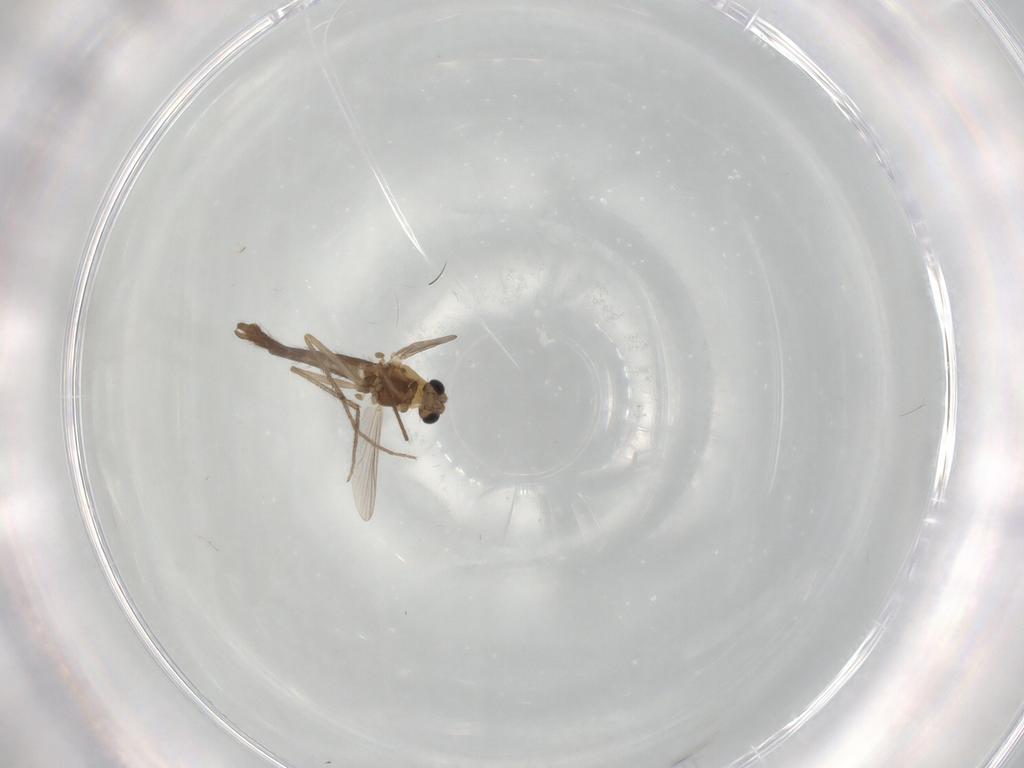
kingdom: Animalia
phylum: Arthropoda
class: Insecta
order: Diptera
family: Chironomidae
